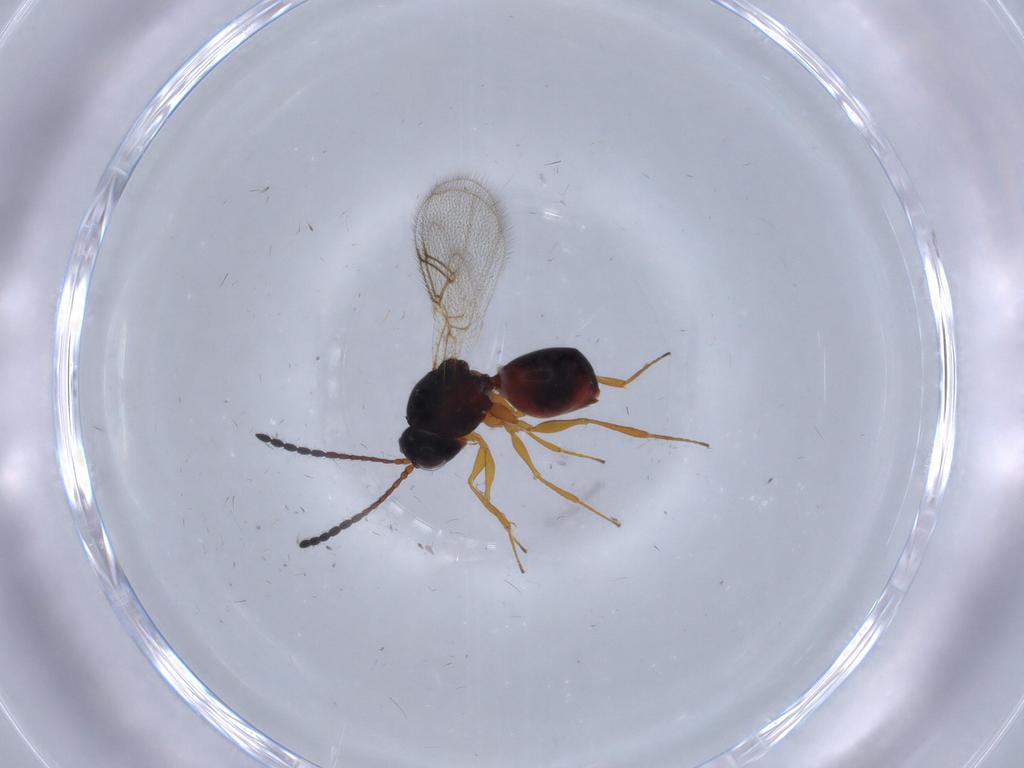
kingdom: Animalia
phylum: Arthropoda
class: Insecta
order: Hymenoptera
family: Figitidae
